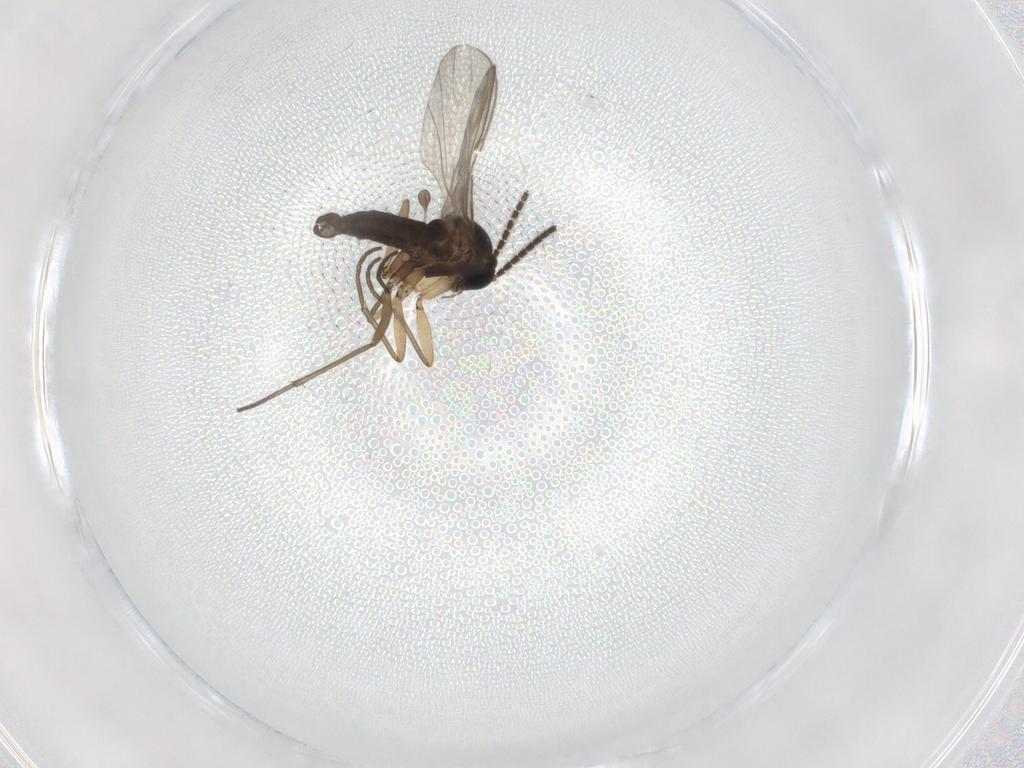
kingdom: Animalia
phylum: Arthropoda
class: Insecta
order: Diptera
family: Sciaridae
